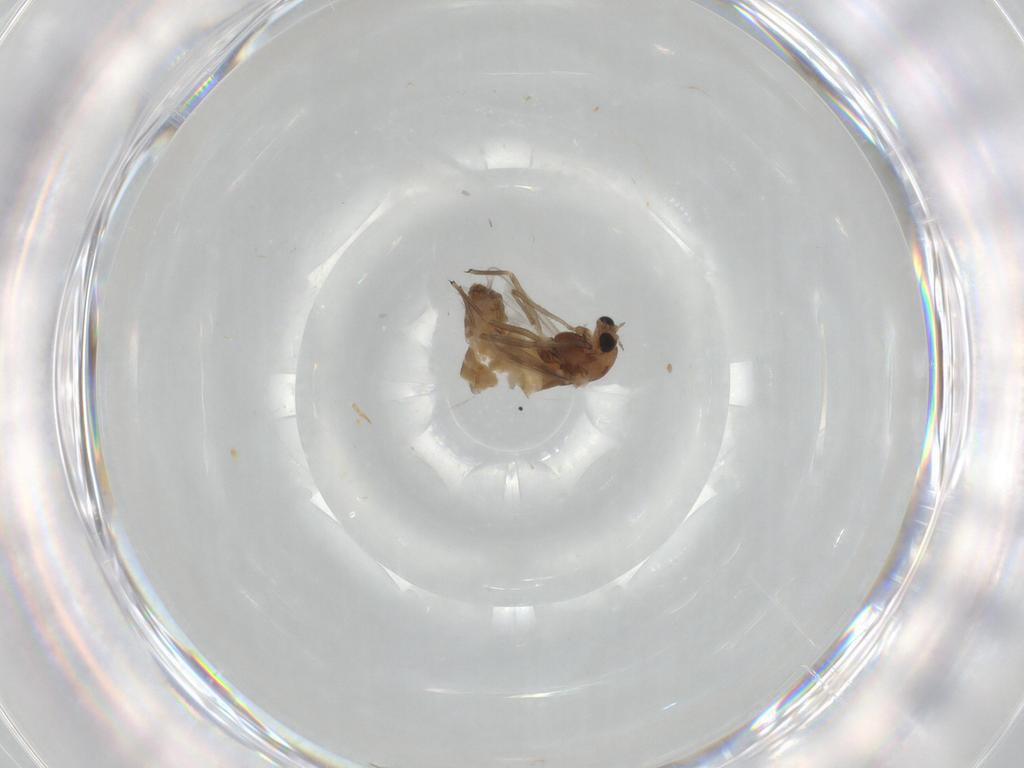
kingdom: Animalia
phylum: Arthropoda
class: Insecta
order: Diptera
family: Chironomidae
